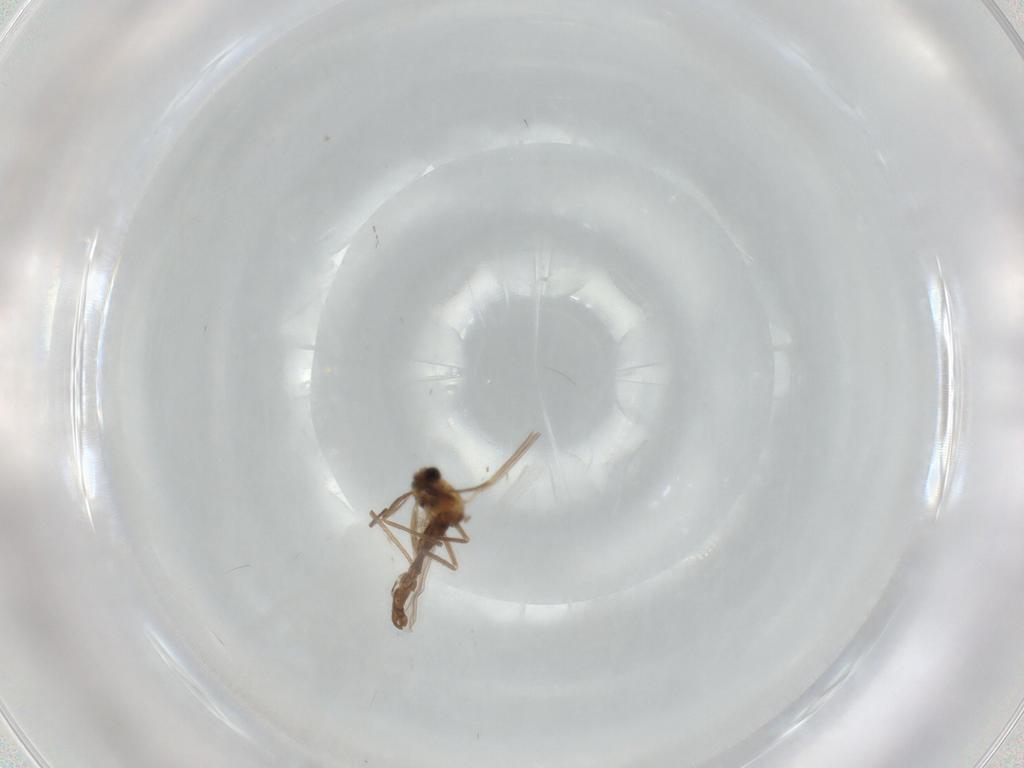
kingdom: Animalia
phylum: Arthropoda
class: Insecta
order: Diptera
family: Chironomidae
